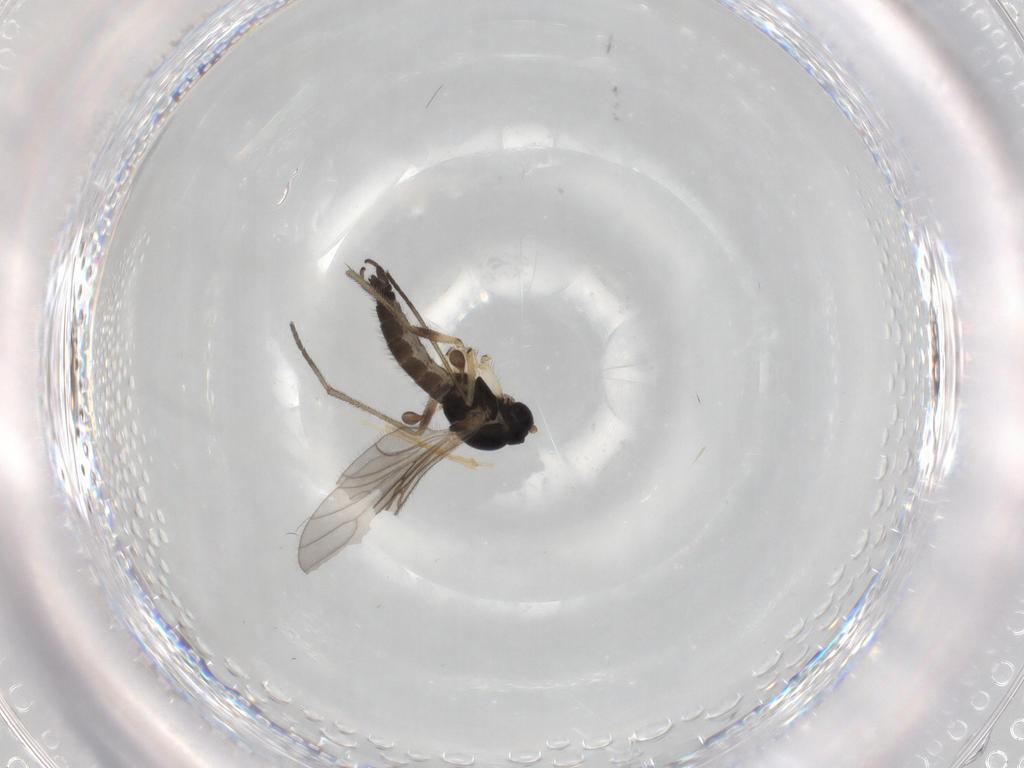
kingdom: Animalia
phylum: Arthropoda
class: Insecta
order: Diptera
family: Sciaridae
